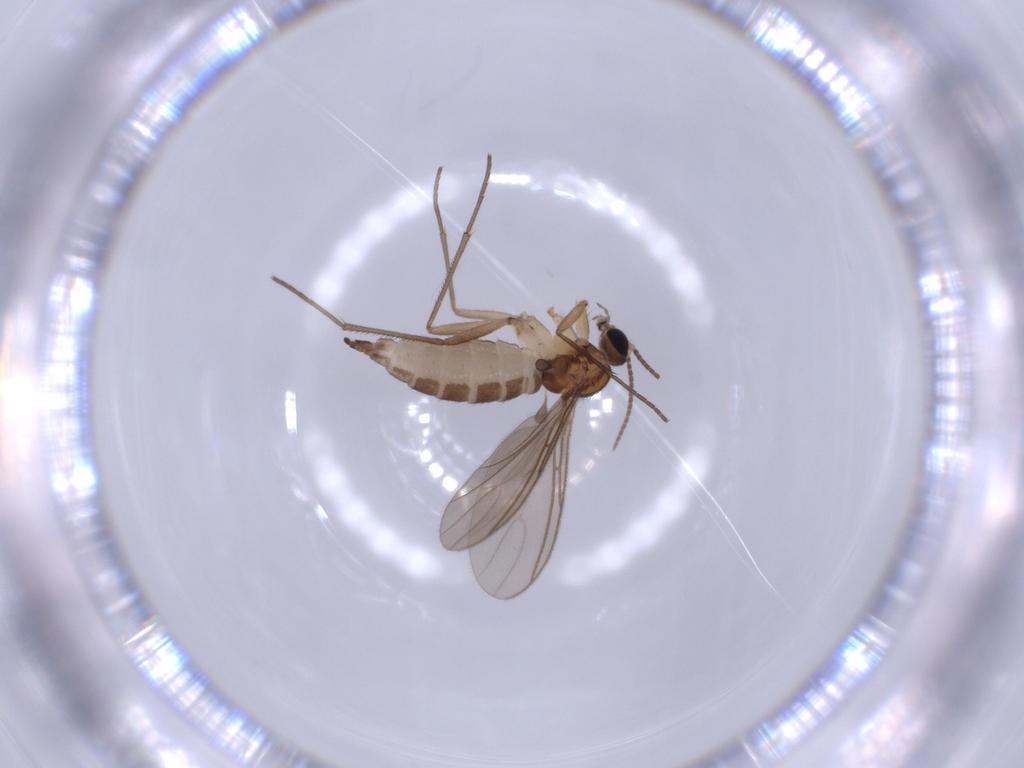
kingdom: Animalia
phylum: Arthropoda
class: Insecta
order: Diptera
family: Sciaridae
